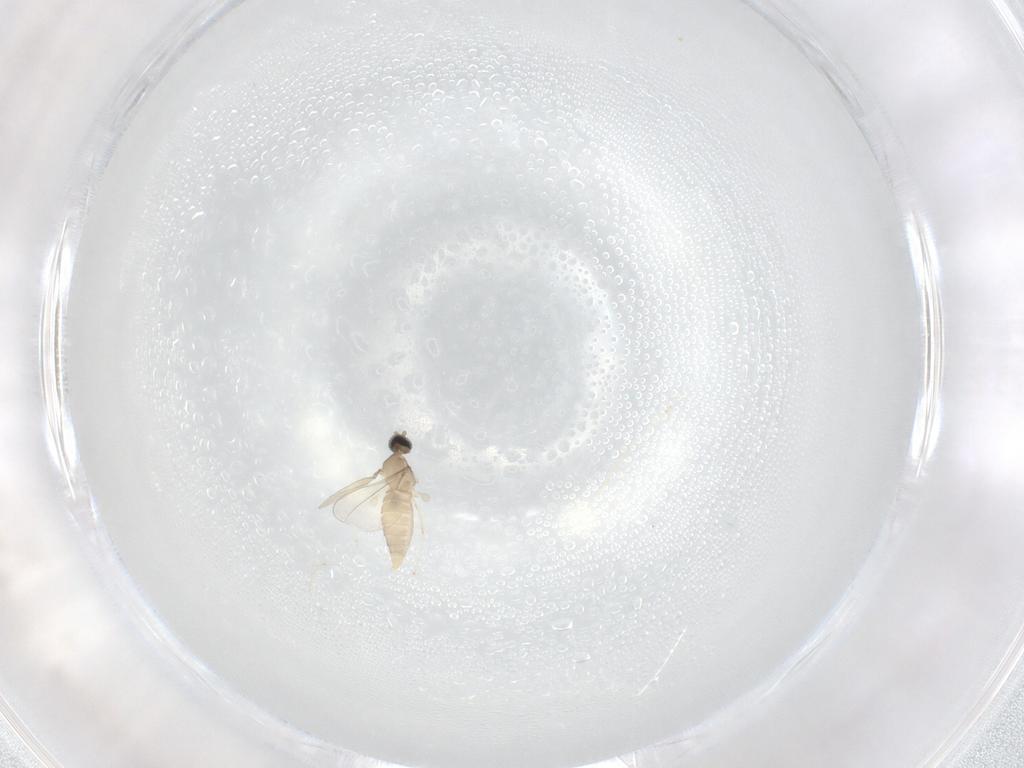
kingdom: Animalia
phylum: Arthropoda
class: Insecta
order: Diptera
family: Cecidomyiidae
